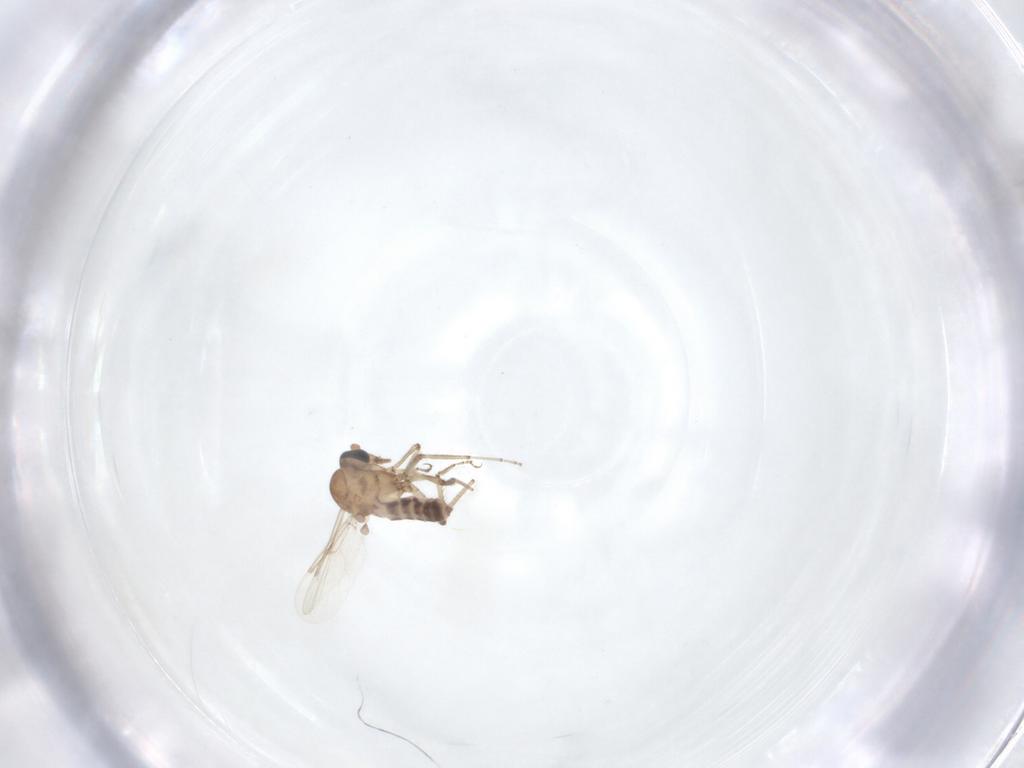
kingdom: Animalia
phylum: Arthropoda
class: Insecta
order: Diptera
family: Ceratopogonidae
